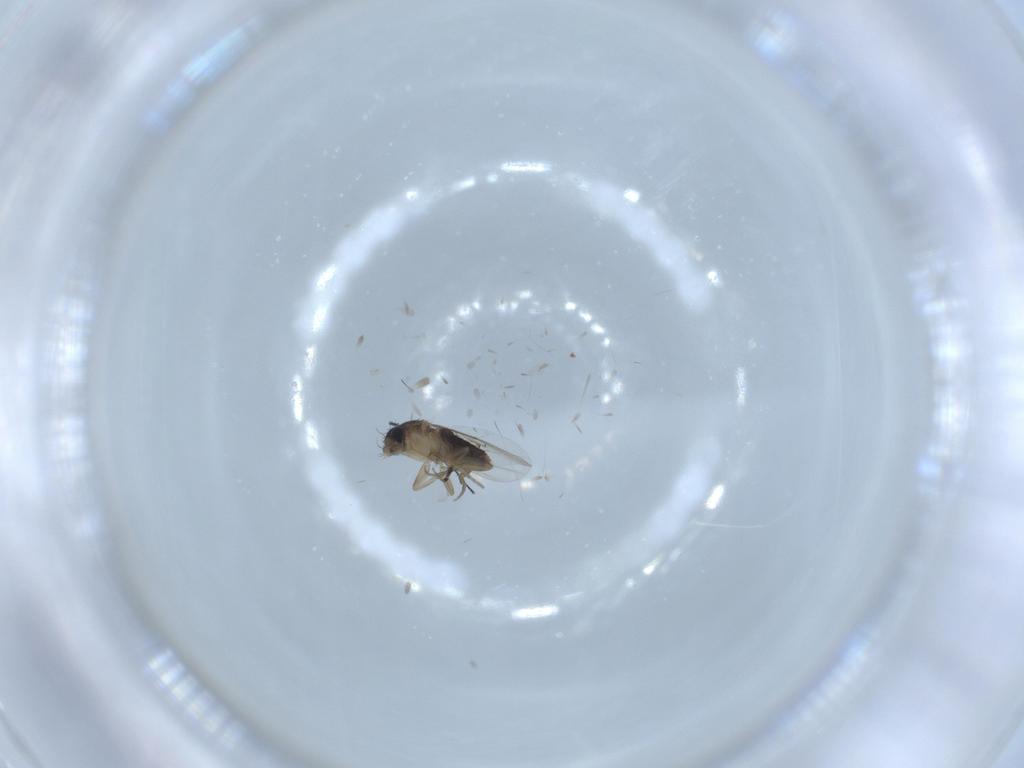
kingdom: Animalia
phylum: Arthropoda
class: Insecta
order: Diptera
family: Phoridae
